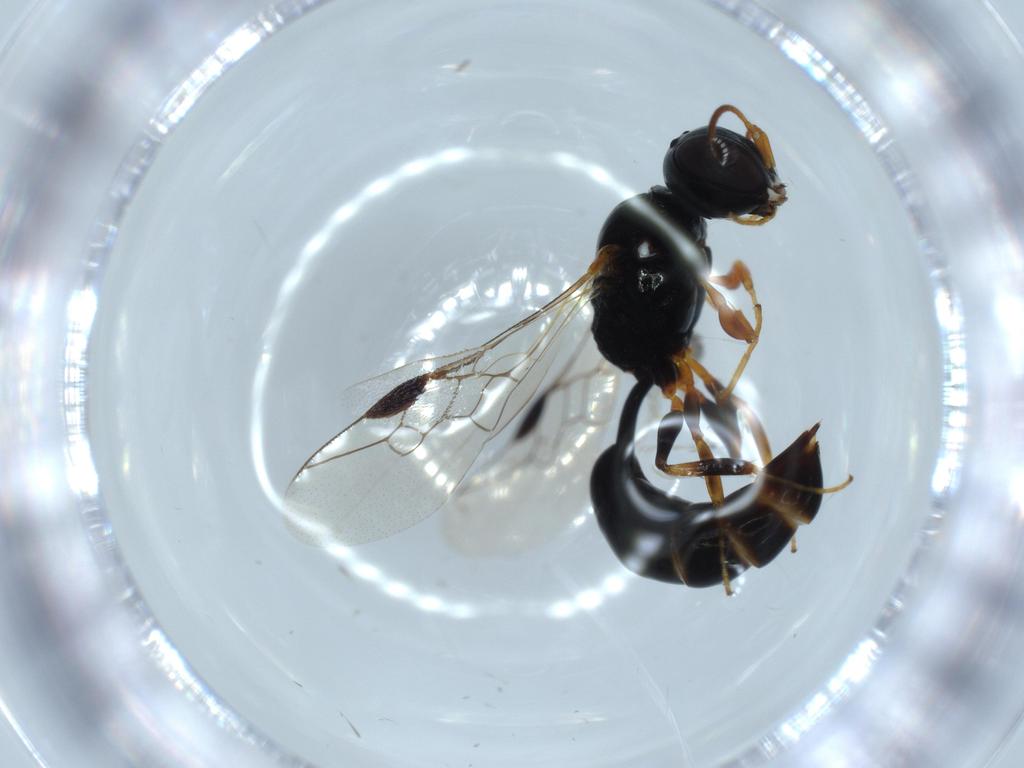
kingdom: Animalia
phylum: Arthropoda
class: Insecta
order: Hymenoptera
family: Crabronidae
